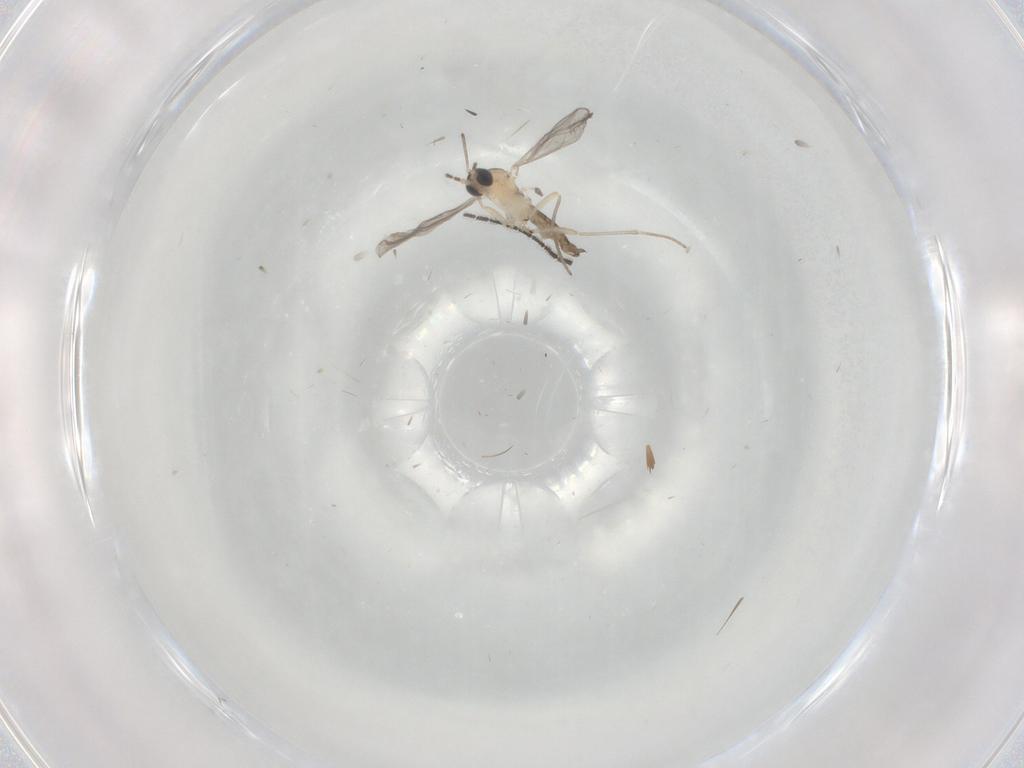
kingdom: Animalia
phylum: Arthropoda
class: Insecta
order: Diptera
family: Sciaridae
